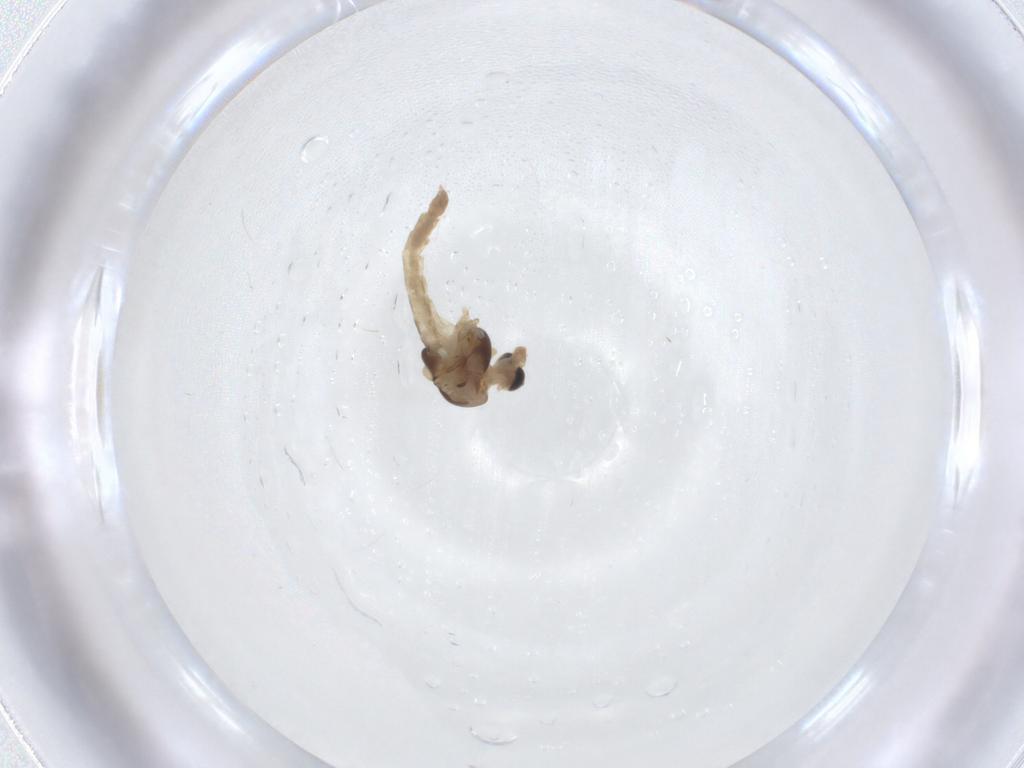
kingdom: Animalia
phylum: Arthropoda
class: Insecta
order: Diptera
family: Chironomidae
